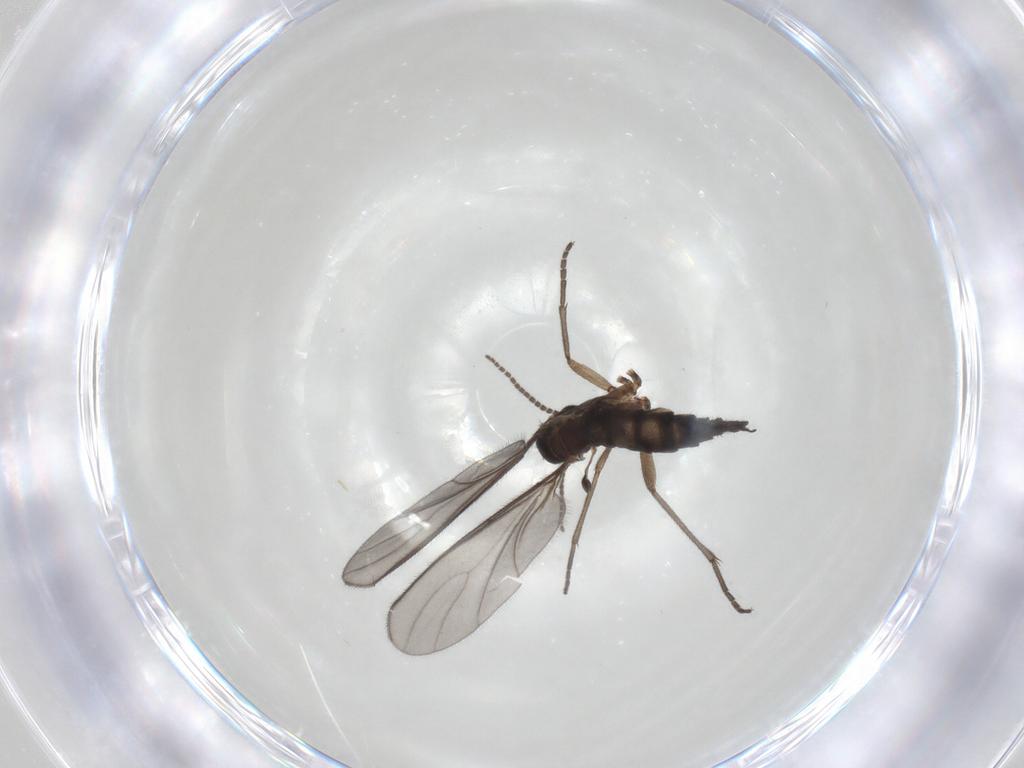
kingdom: Animalia
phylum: Arthropoda
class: Insecta
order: Diptera
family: Sciaridae
